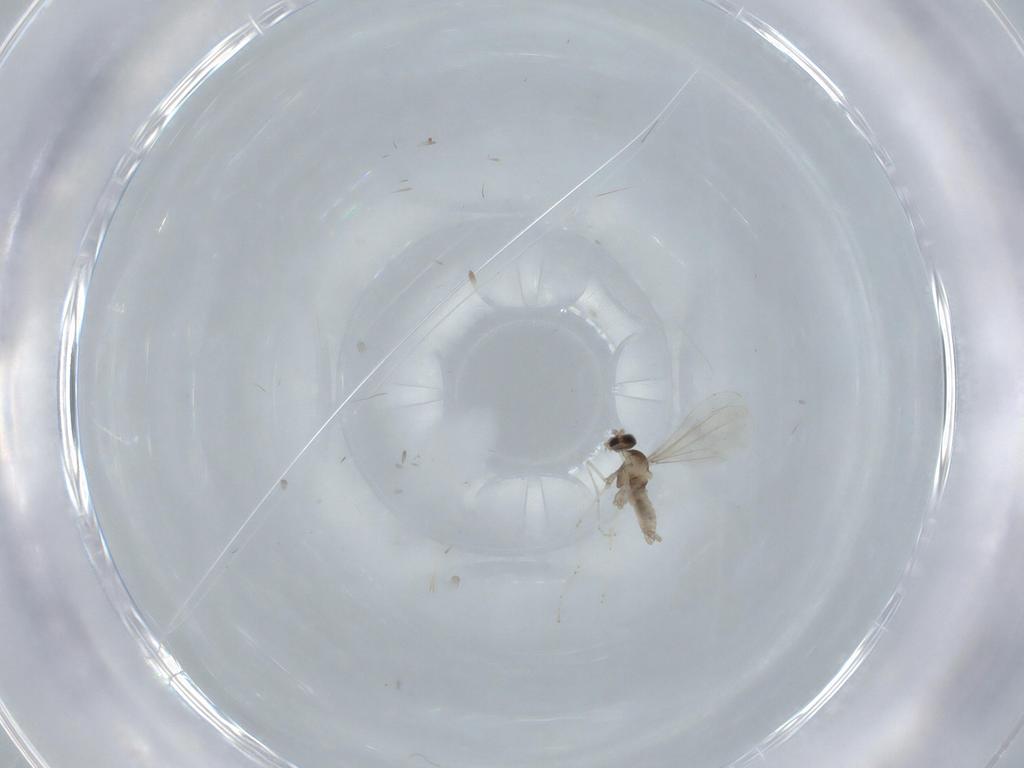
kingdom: Animalia
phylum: Arthropoda
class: Insecta
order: Diptera
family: Cecidomyiidae
